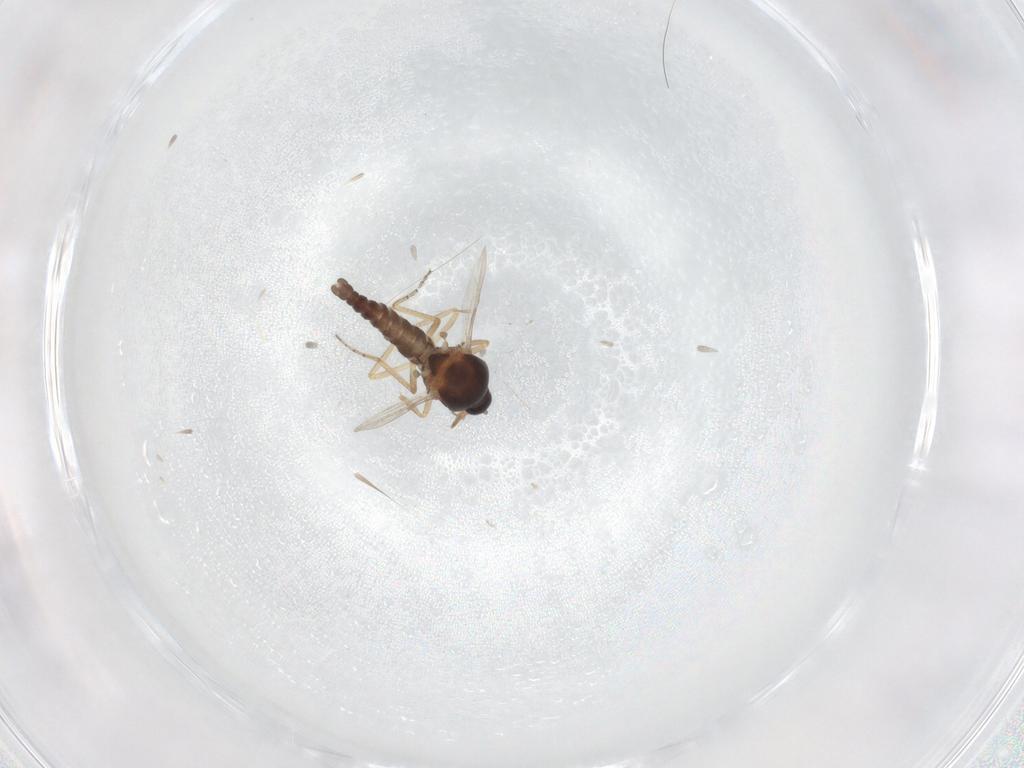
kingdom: Animalia
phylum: Arthropoda
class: Insecta
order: Diptera
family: Ceratopogonidae
